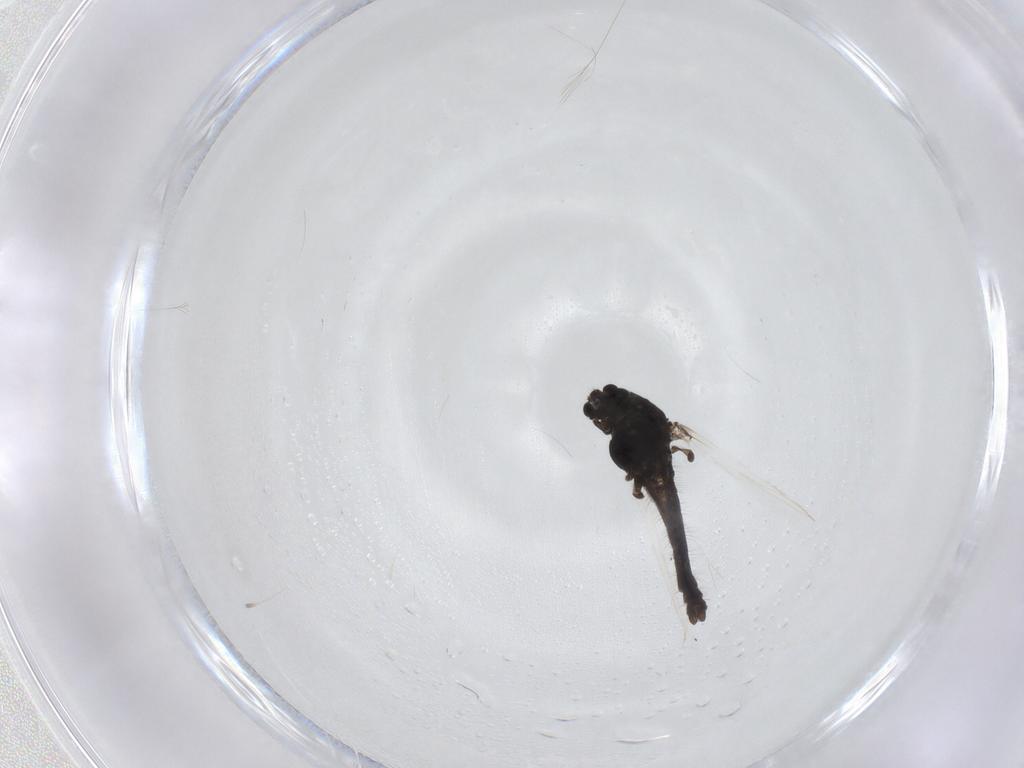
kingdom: Animalia
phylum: Arthropoda
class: Insecta
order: Diptera
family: Chironomidae
